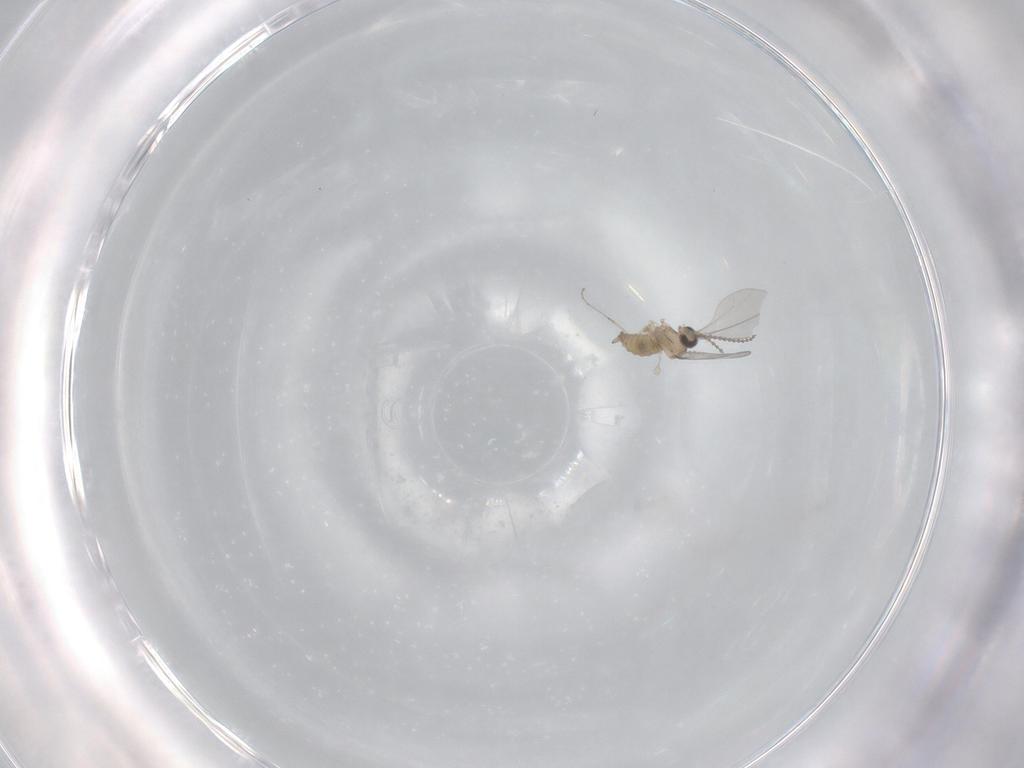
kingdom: Animalia
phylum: Arthropoda
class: Insecta
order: Diptera
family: Cecidomyiidae
